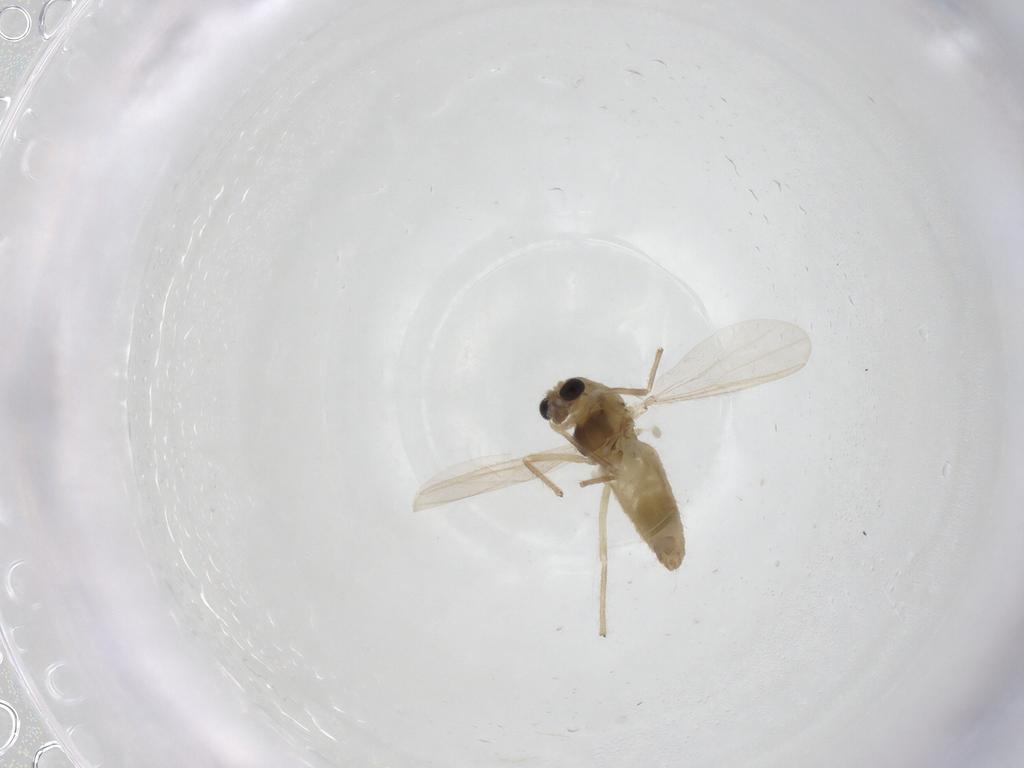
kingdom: Animalia
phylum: Arthropoda
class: Insecta
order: Diptera
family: Chironomidae
